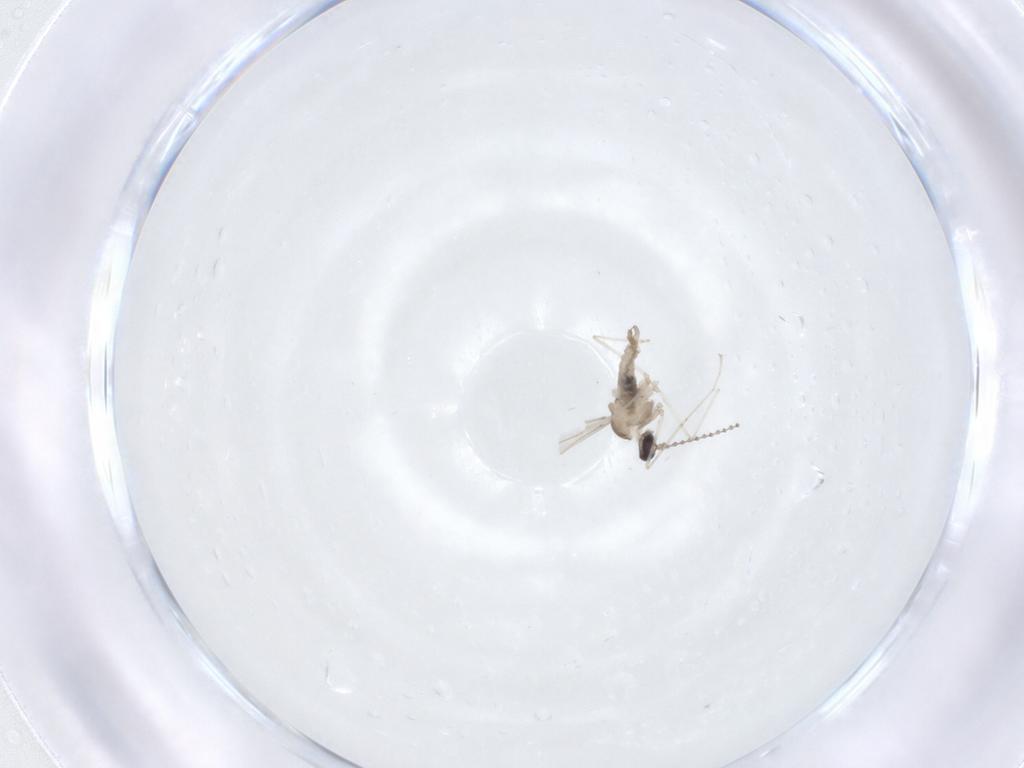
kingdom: Animalia
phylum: Arthropoda
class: Insecta
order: Diptera
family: Cecidomyiidae
